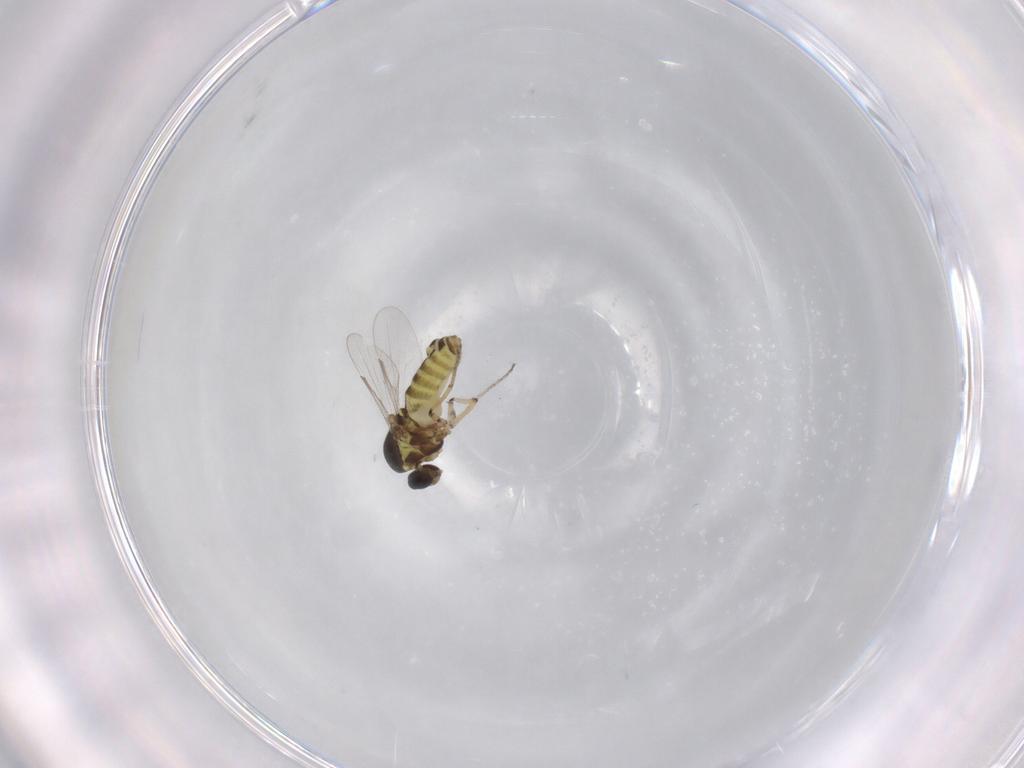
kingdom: Animalia
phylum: Arthropoda
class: Insecta
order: Diptera
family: Ceratopogonidae
